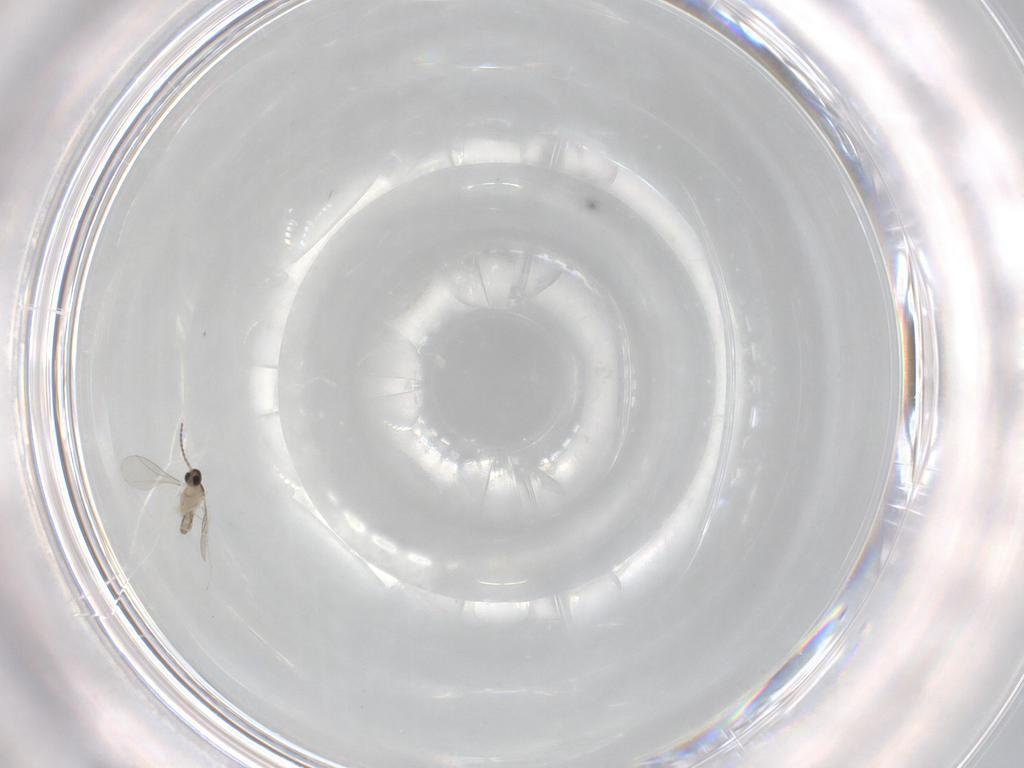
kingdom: Animalia
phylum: Arthropoda
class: Insecta
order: Diptera
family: Cecidomyiidae
